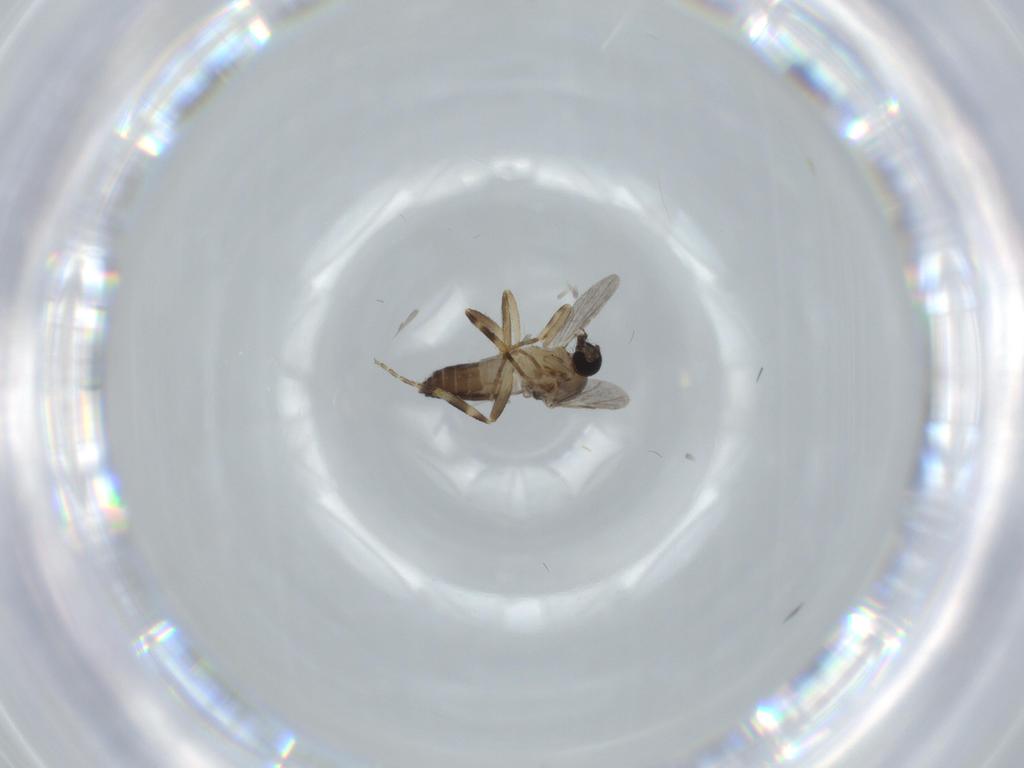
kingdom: Animalia
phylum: Arthropoda
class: Insecta
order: Diptera
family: Ceratopogonidae
